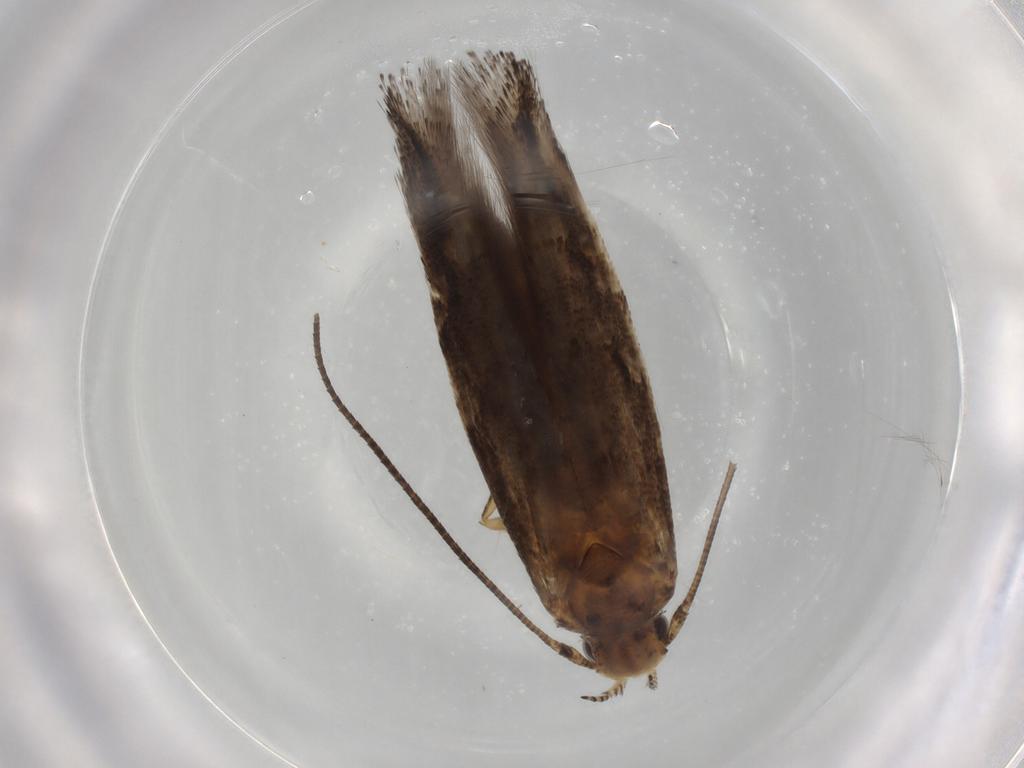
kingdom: Animalia
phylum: Arthropoda
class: Insecta
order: Lepidoptera
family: Gelechiidae
